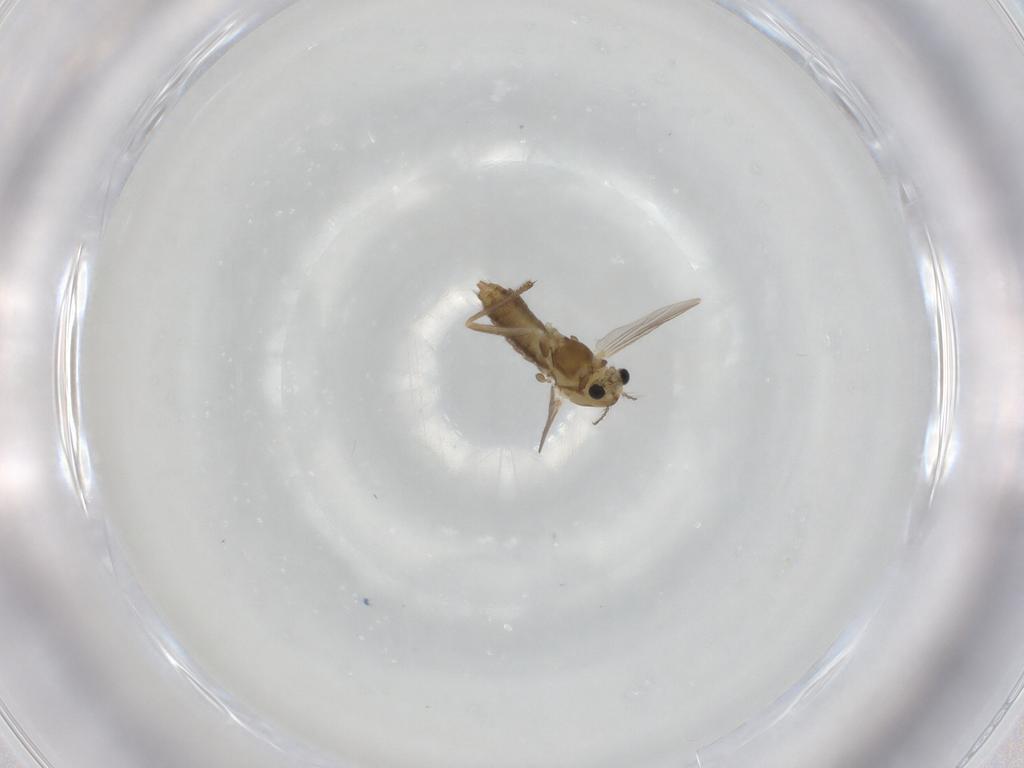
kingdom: Animalia
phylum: Arthropoda
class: Insecta
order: Diptera
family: Chironomidae
